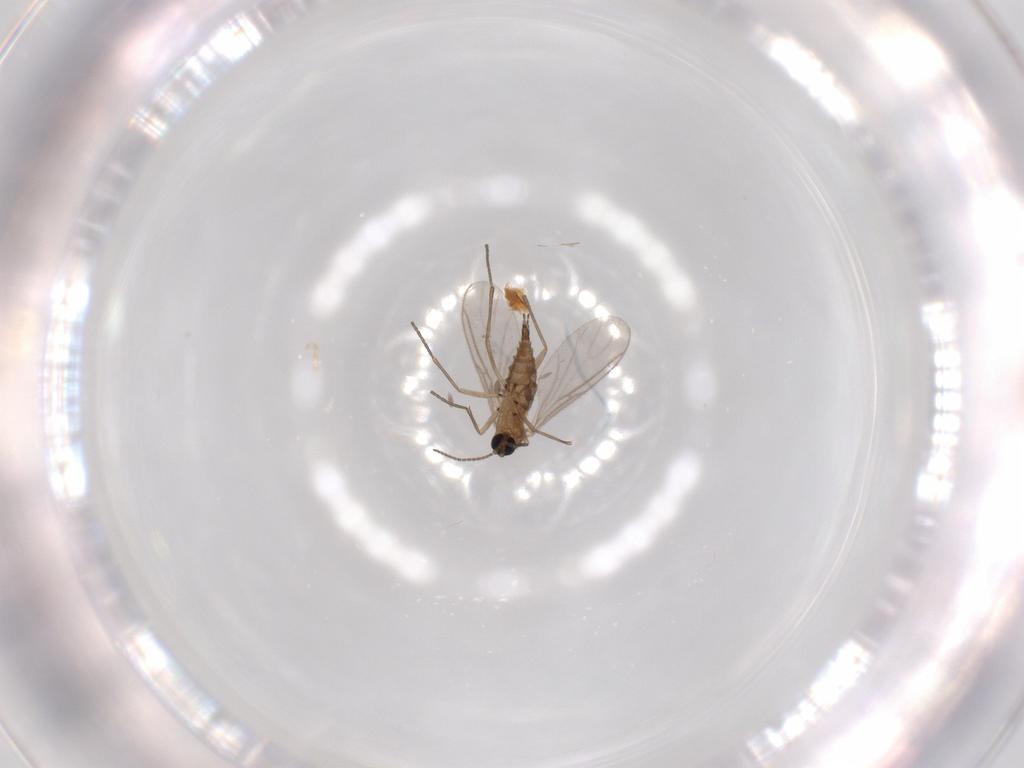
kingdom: Animalia
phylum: Arthropoda
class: Insecta
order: Diptera
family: Sciaridae
